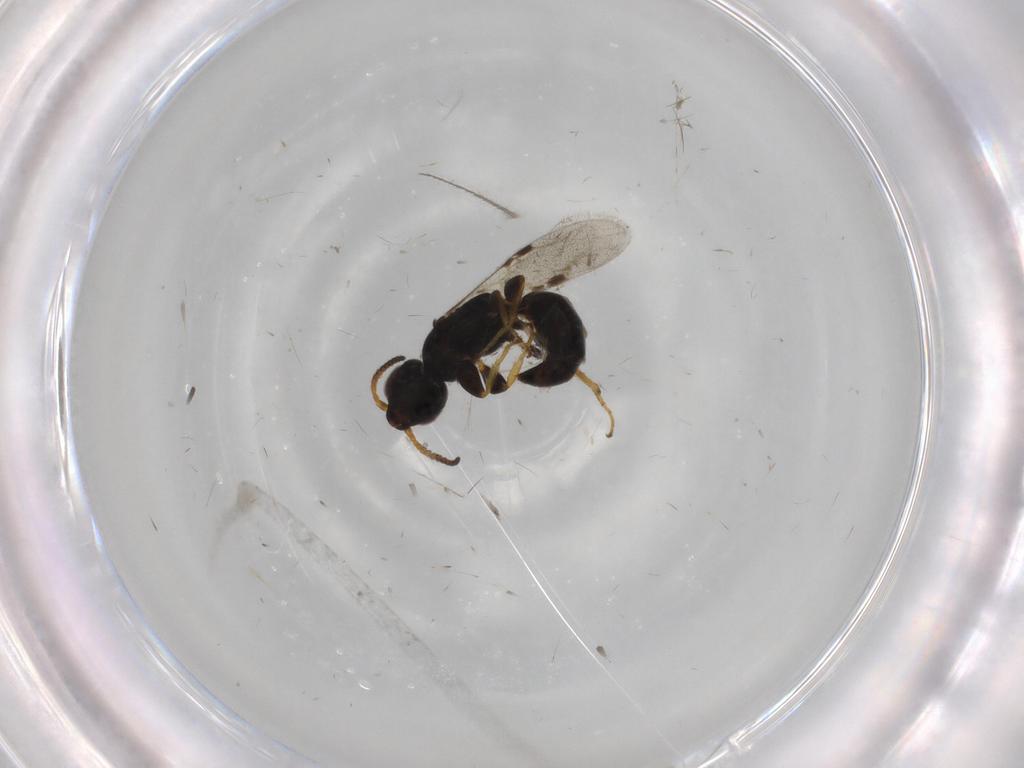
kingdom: Animalia
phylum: Arthropoda
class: Insecta
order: Hymenoptera
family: Bethylidae
